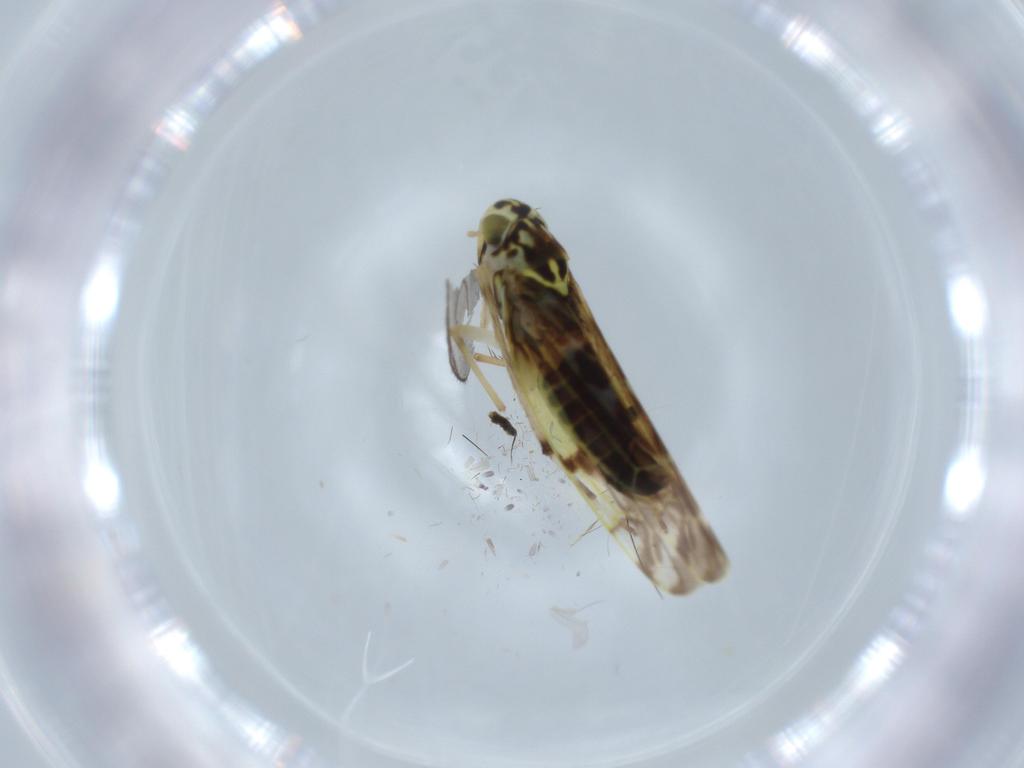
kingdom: Animalia
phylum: Arthropoda
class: Insecta
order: Hemiptera
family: Cicadellidae
